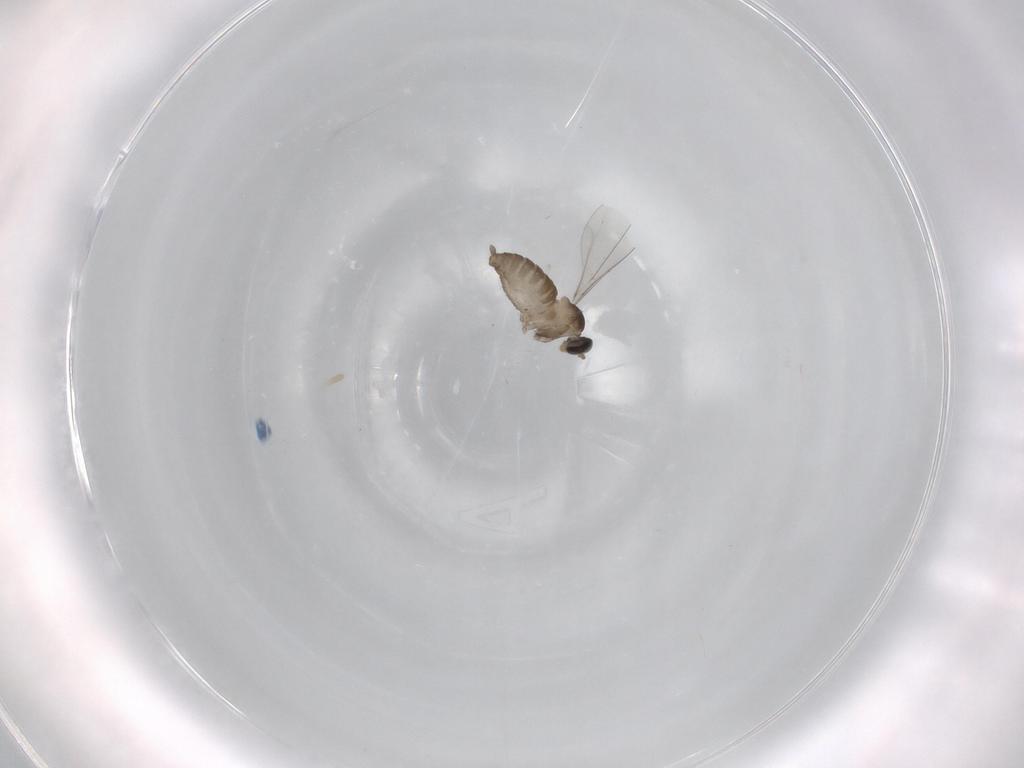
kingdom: Animalia
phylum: Arthropoda
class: Insecta
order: Diptera
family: Cecidomyiidae
